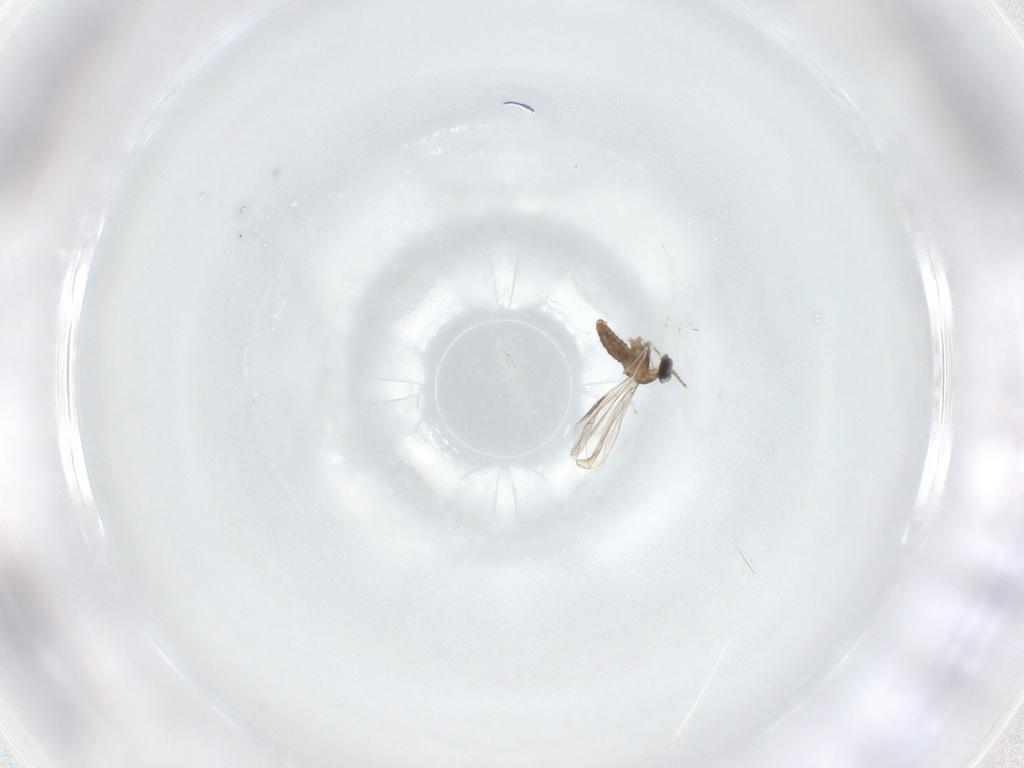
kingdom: Animalia
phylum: Arthropoda
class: Insecta
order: Diptera
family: Cecidomyiidae
